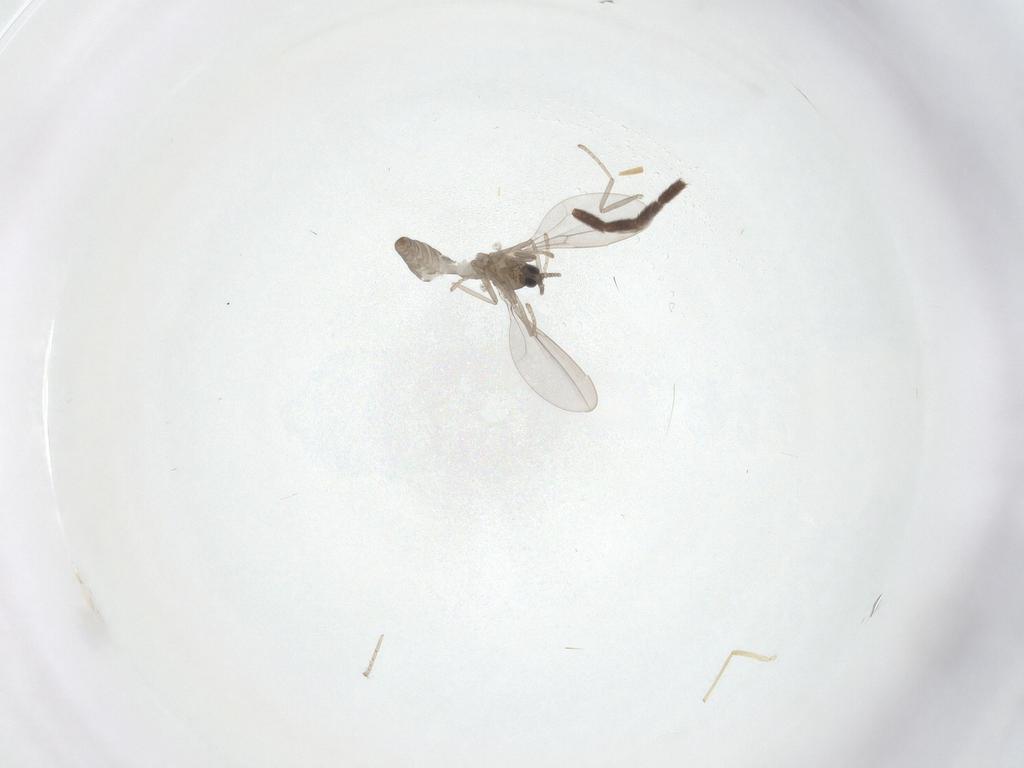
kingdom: Animalia
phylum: Arthropoda
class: Insecta
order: Diptera
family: Cecidomyiidae
